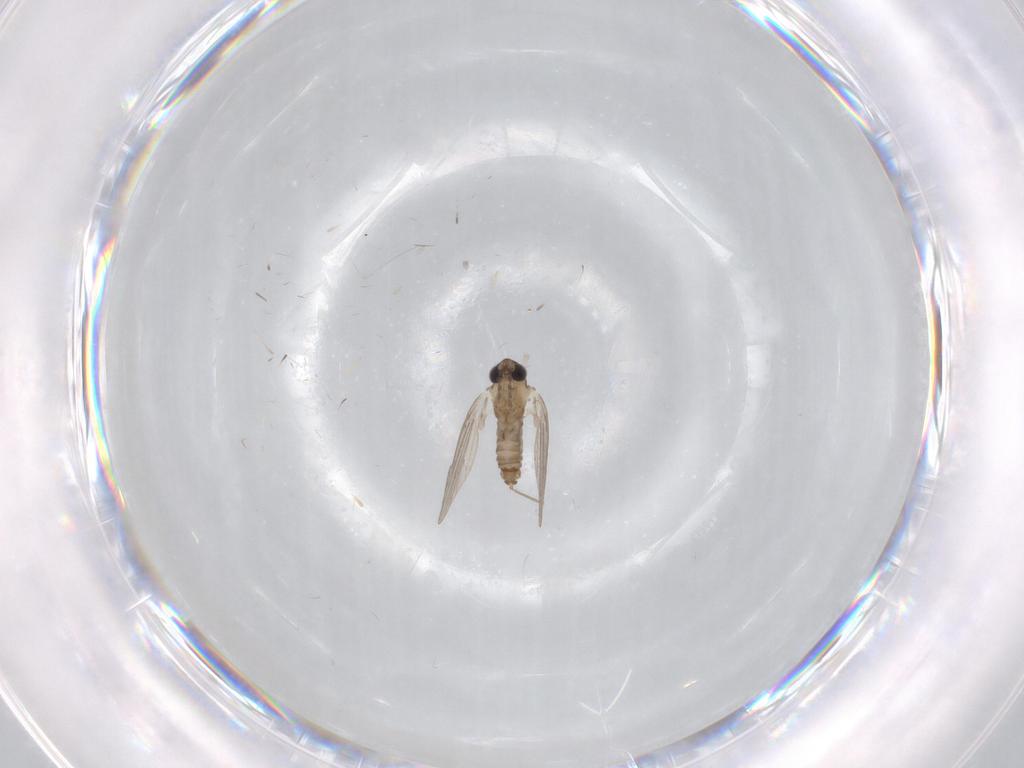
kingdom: Animalia
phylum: Arthropoda
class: Insecta
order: Diptera
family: Chironomidae
